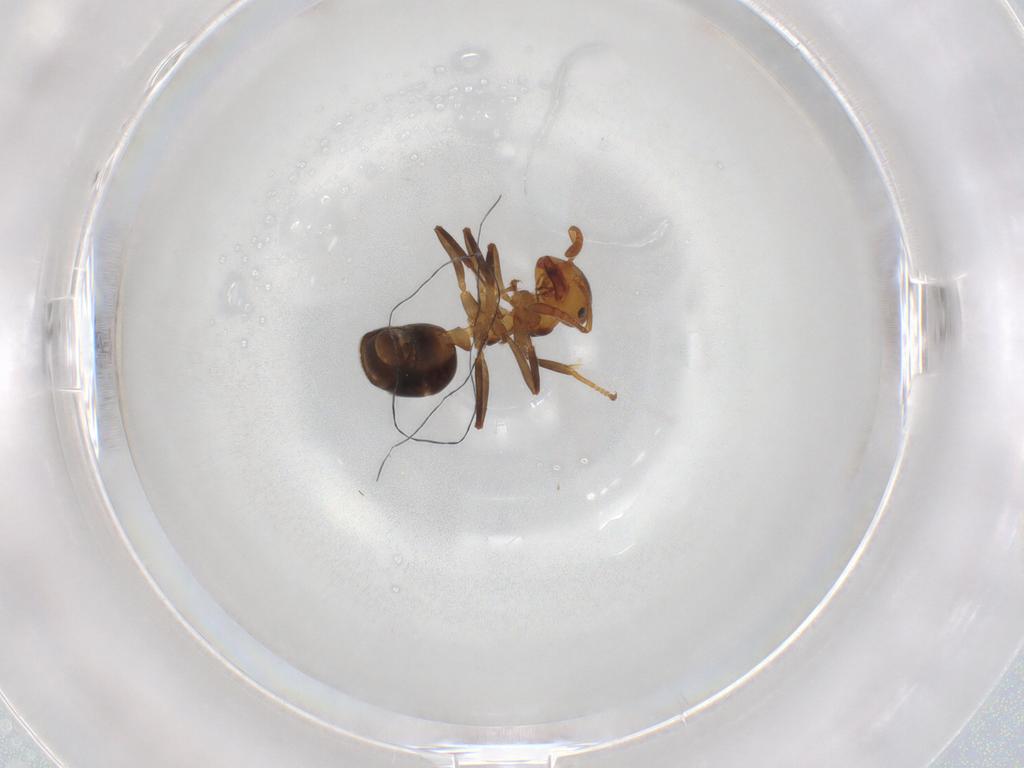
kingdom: Animalia
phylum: Arthropoda
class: Insecta
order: Hymenoptera
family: Formicidae
